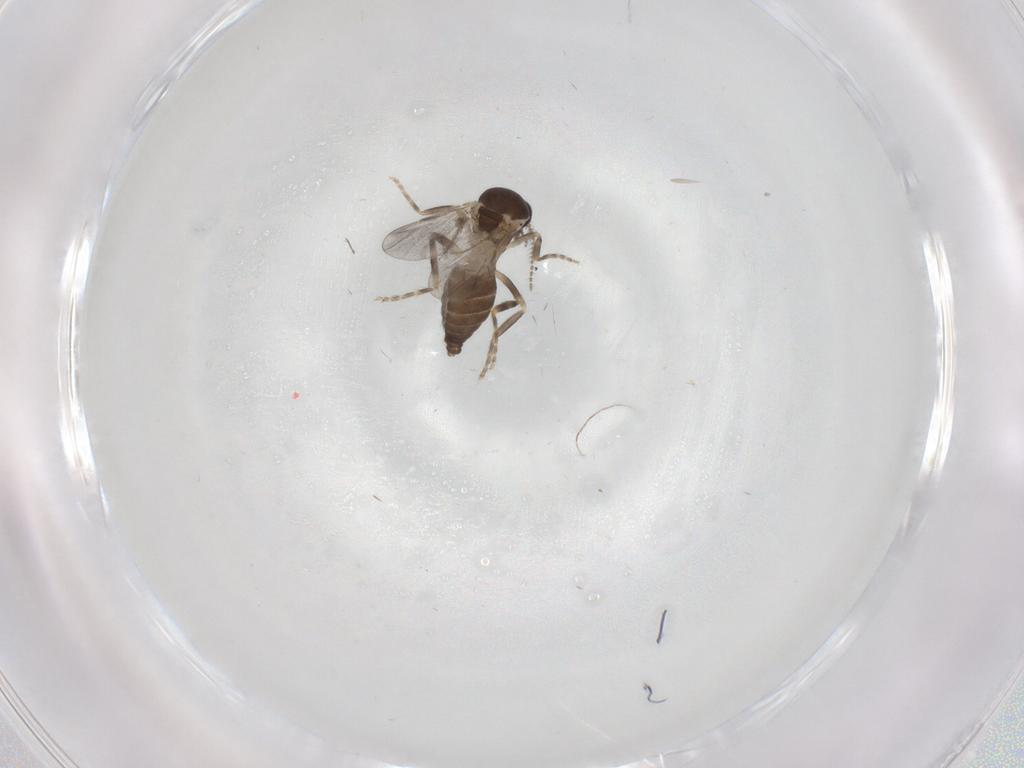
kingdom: Animalia
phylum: Arthropoda
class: Insecta
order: Diptera
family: Ceratopogonidae
